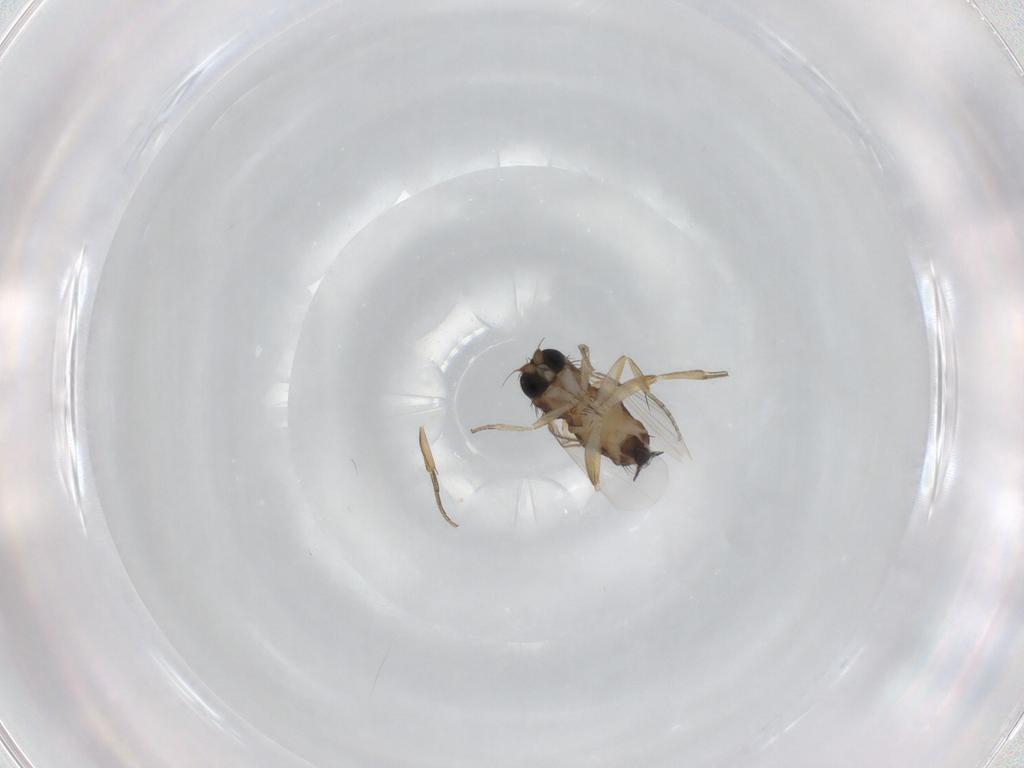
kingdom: Animalia
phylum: Arthropoda
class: Insecta
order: Diptera
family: Phoridae
